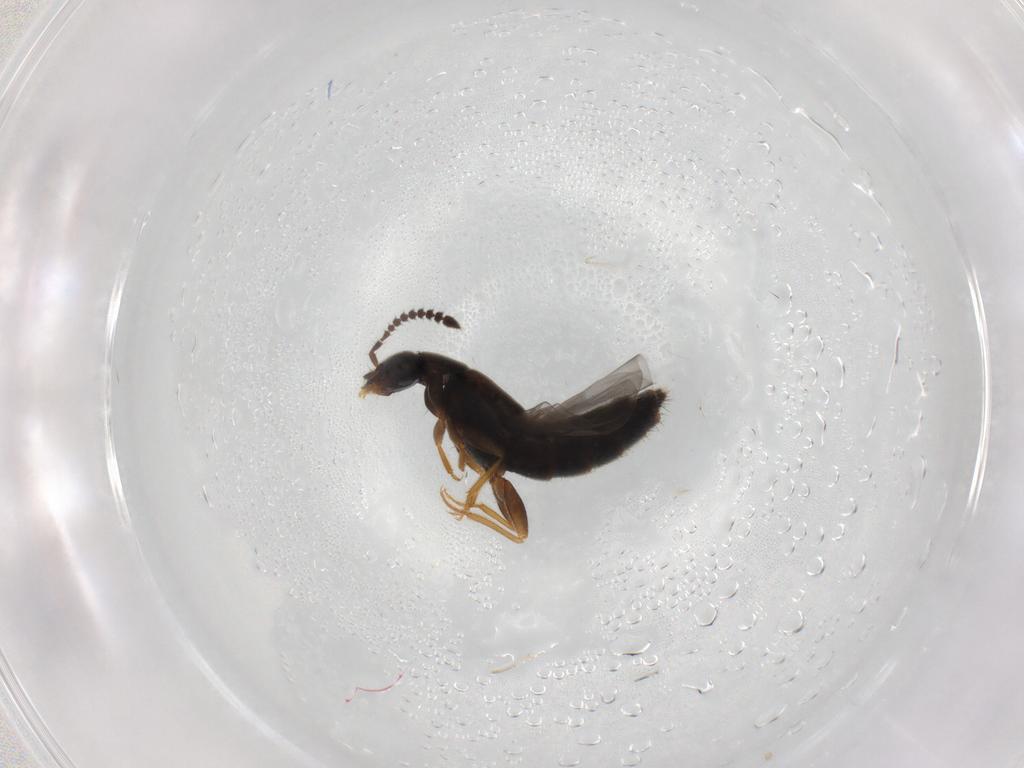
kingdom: Animalia
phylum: Arthropoda
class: Insecta
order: Coleoptera
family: Staphylinidae
